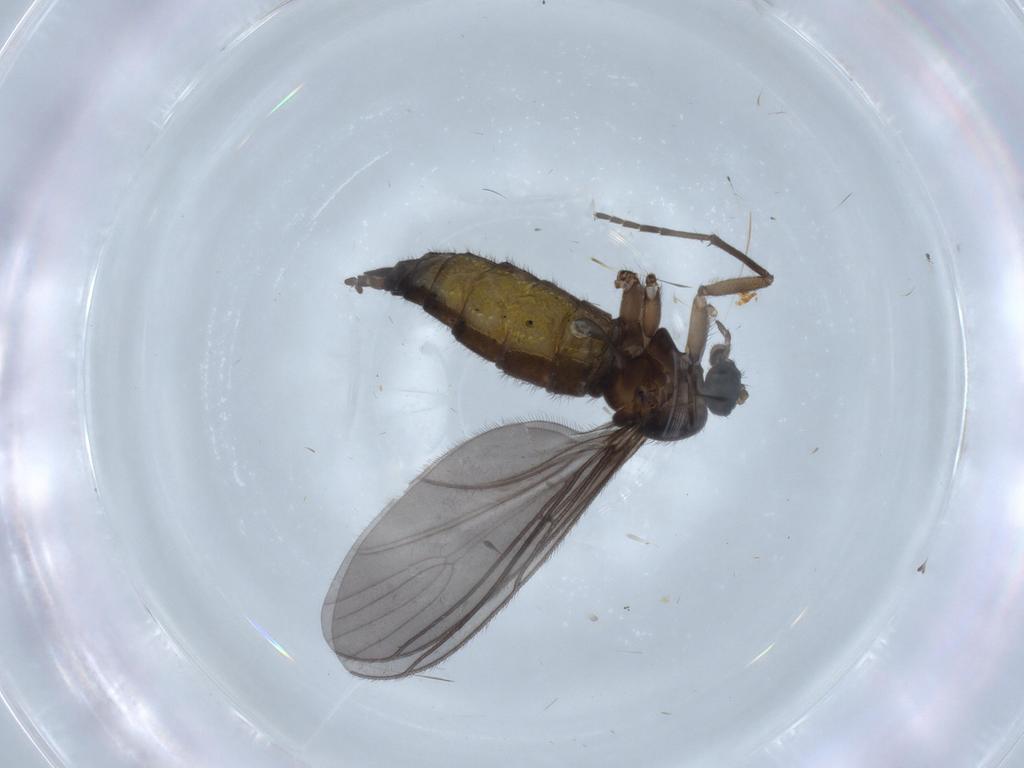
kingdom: Animalia
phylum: Arthropoda
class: Insecta
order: Diptera
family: Sciaridae
